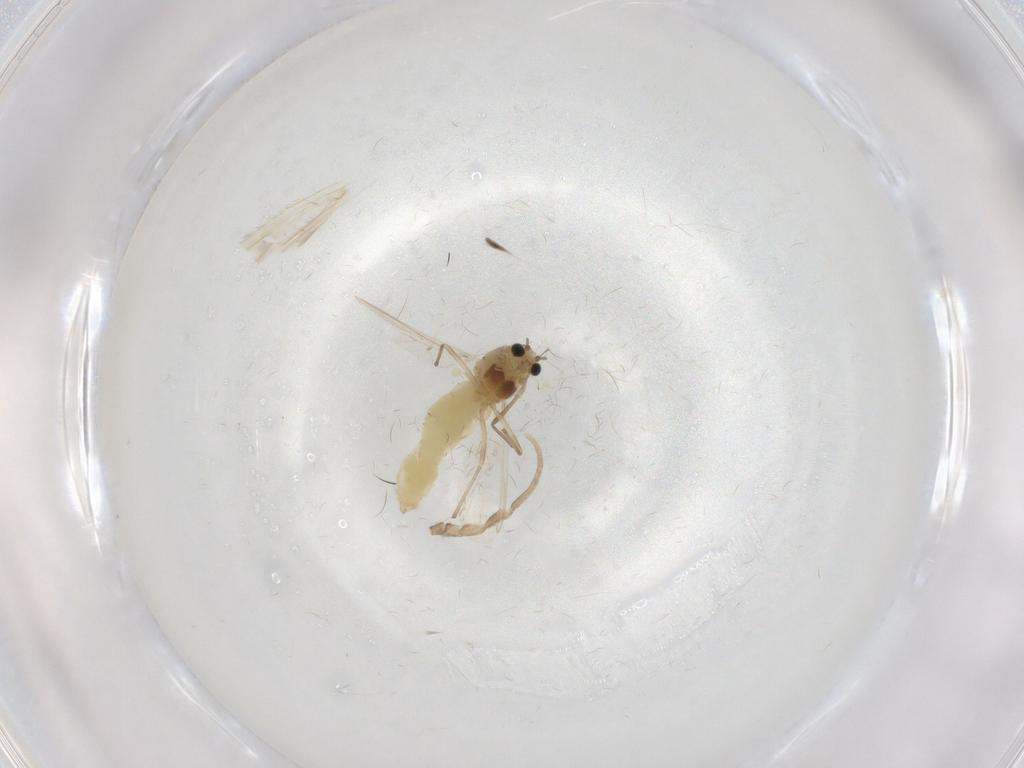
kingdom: Animalia
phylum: Arthropoda
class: Insecta
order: Diptera
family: Chironomidae
